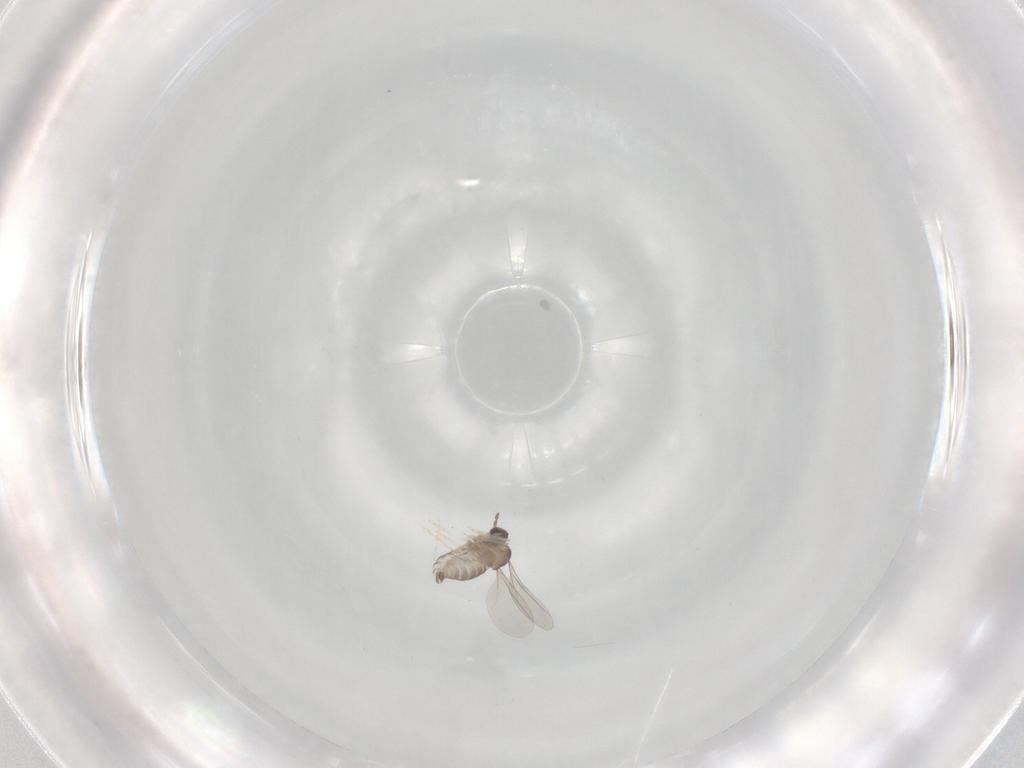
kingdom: Animalia
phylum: Arthropoda
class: Insecta
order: Diptera
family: Cecidomyiidae
